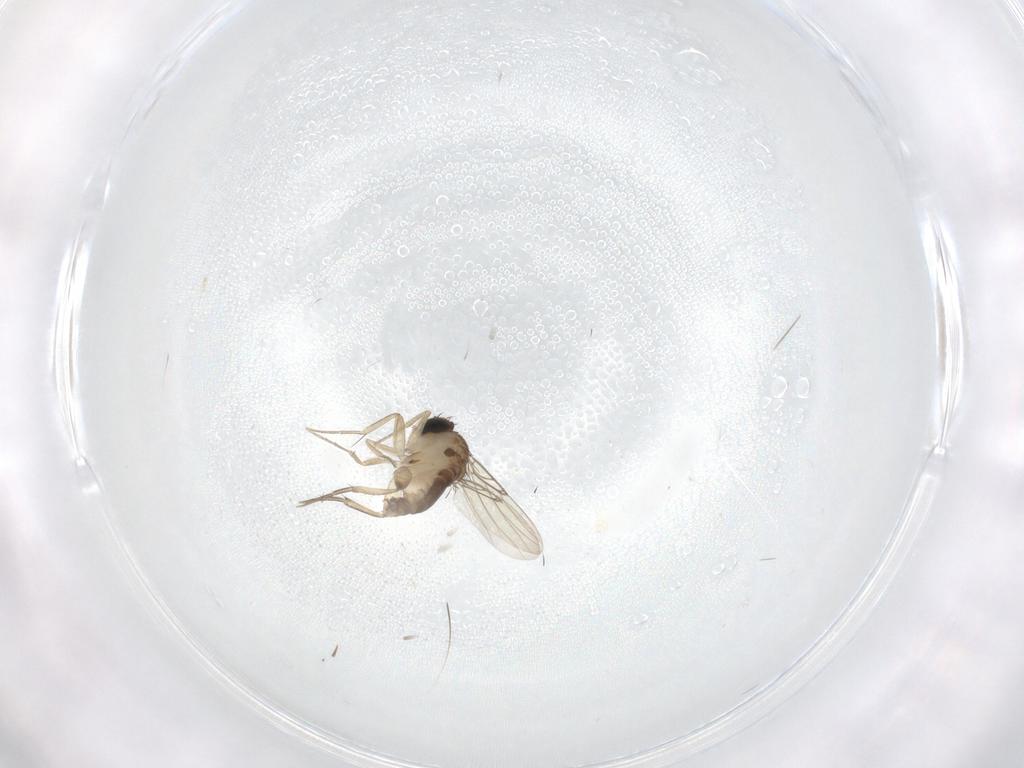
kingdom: Animalia
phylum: Arthropoda
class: Insecta
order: Diptera
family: Phoridae
